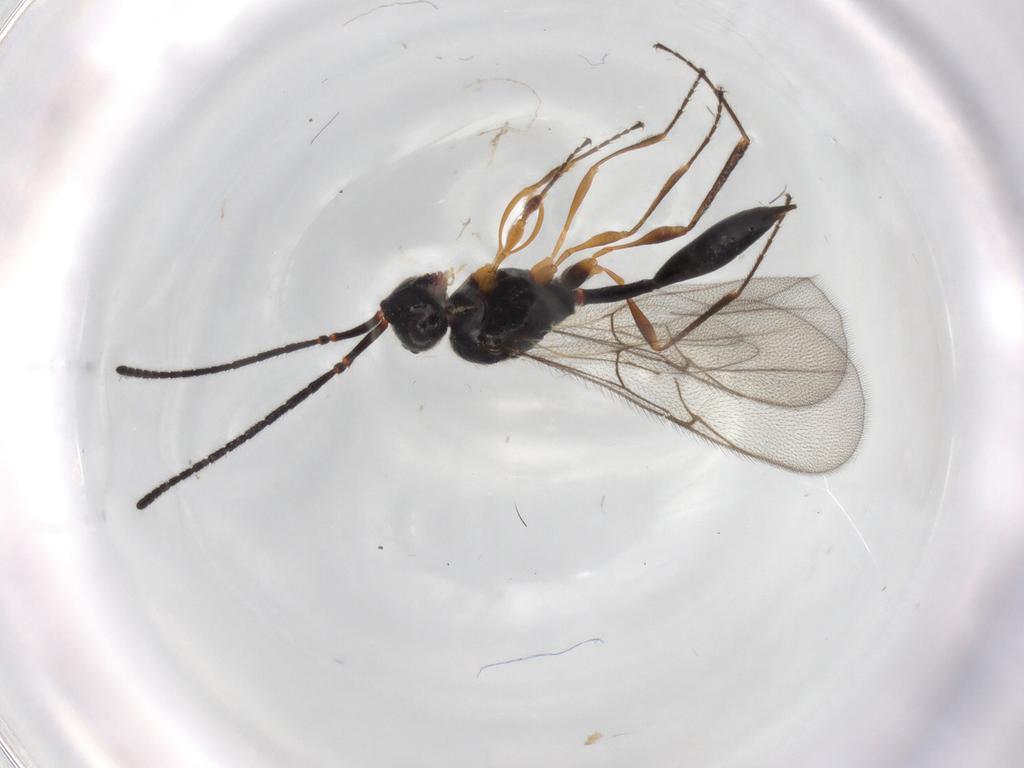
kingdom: Animalia
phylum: Arthropoda
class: Insecta
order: Hymenoptera
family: Diapriidae
